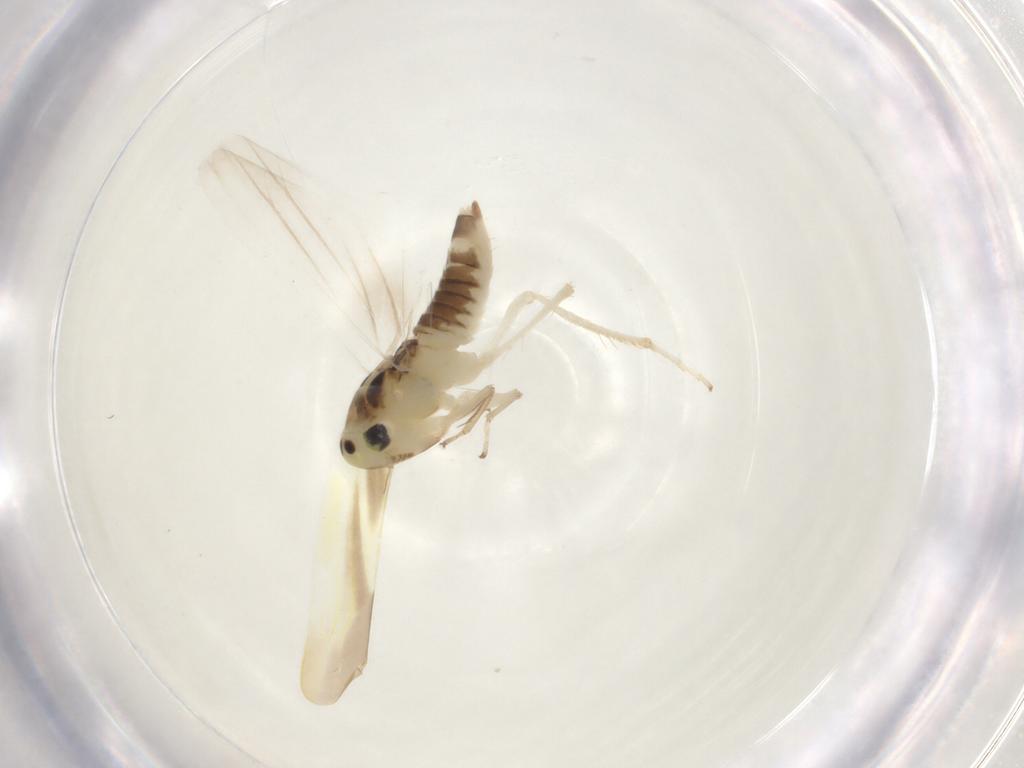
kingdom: Animalia
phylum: Arthropoda
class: Insecta
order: Hemiptera
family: Cicadellidae
